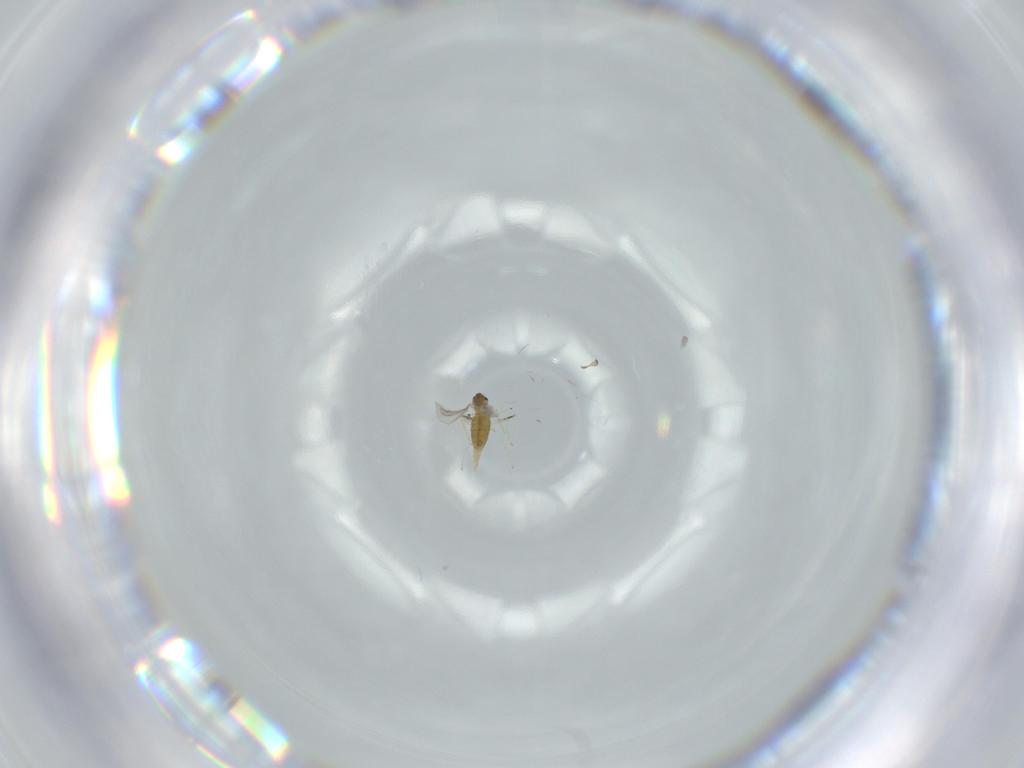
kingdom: Animalia
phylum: Arthropoda
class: Insecta
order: Diptera
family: Cecidomyiidae
